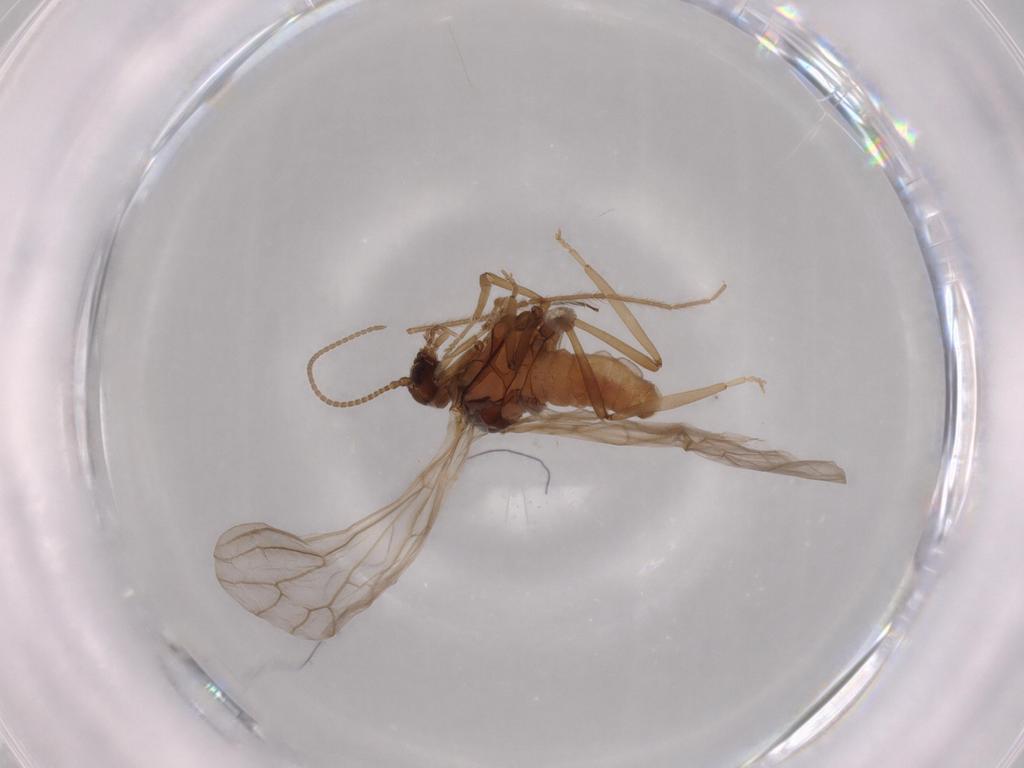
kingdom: Animalia
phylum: Arthropoda
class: Insecta
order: Neuroptera
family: Coniopterygidae
